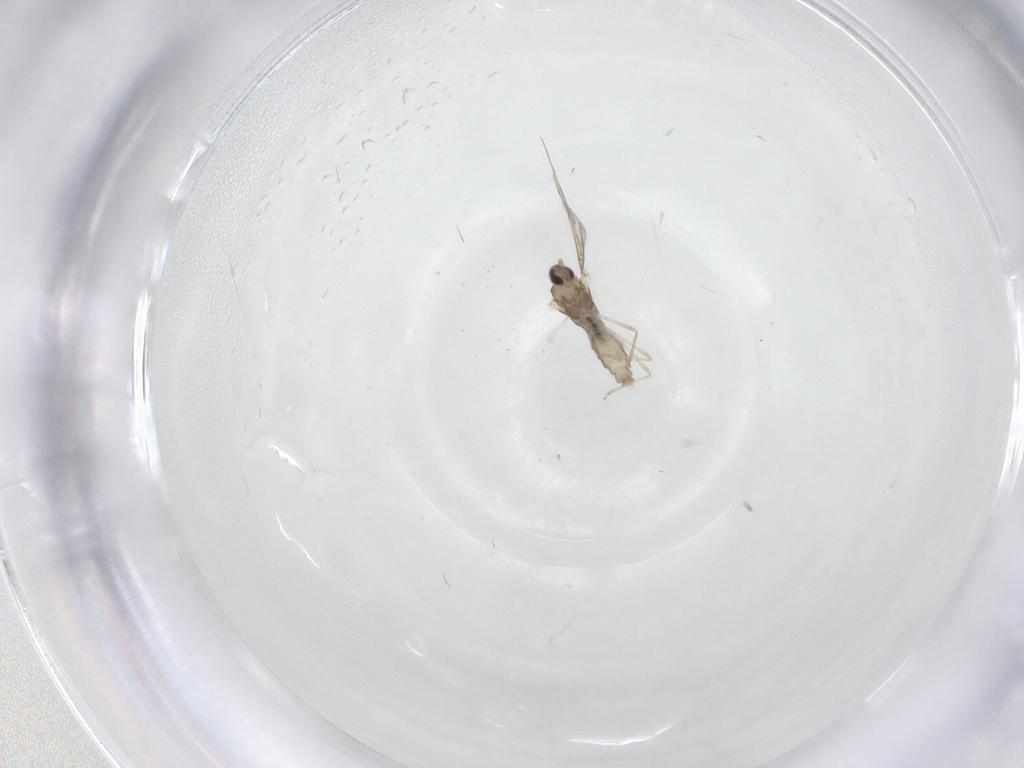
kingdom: Animalia
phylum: Arthropoda
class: Insecta
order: Diptera
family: Cecidomyiidae
